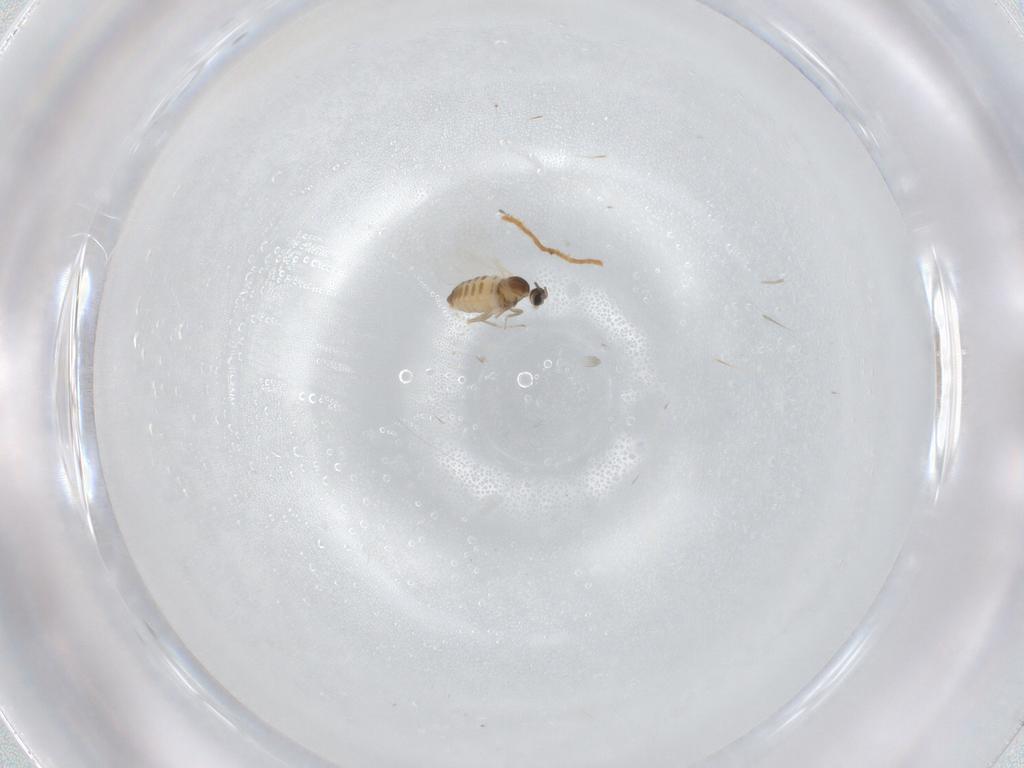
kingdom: Animalia
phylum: Arthropoda
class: Insecta
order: Diptera
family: Cecidomyiidae
